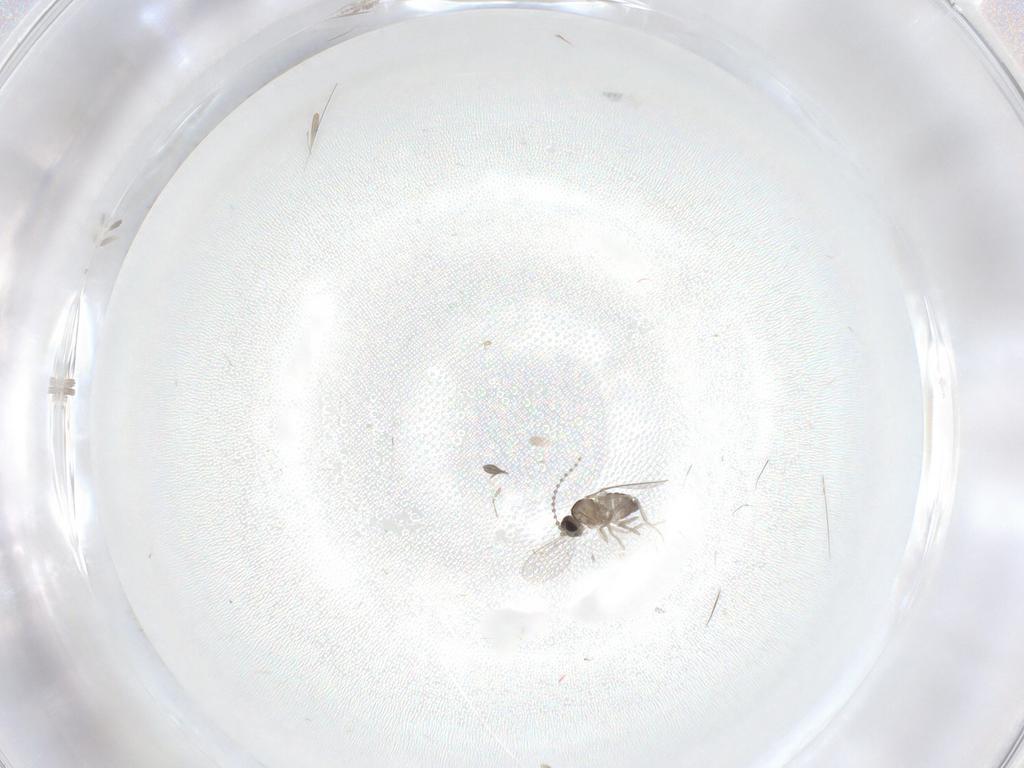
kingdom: Animalia
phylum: Arthropoda
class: Insecta
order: Diptera
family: Cecidomyiidae
